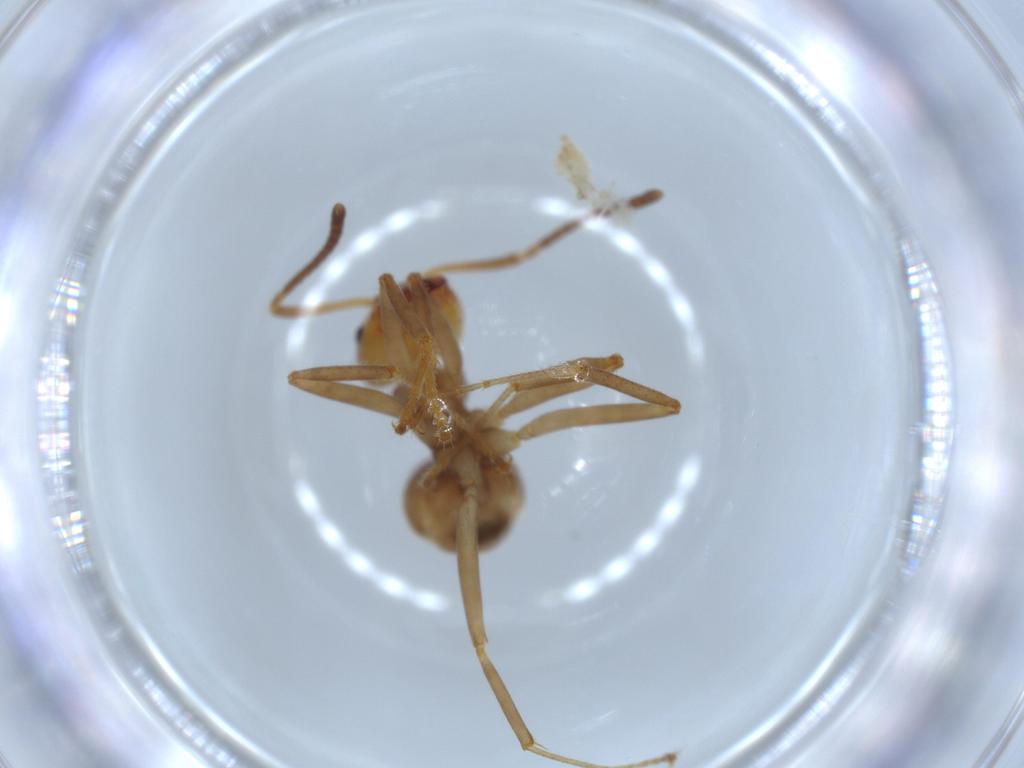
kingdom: Animalia
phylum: Arthropoda
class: Insecta
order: Hymenoptera
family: Formicidae
